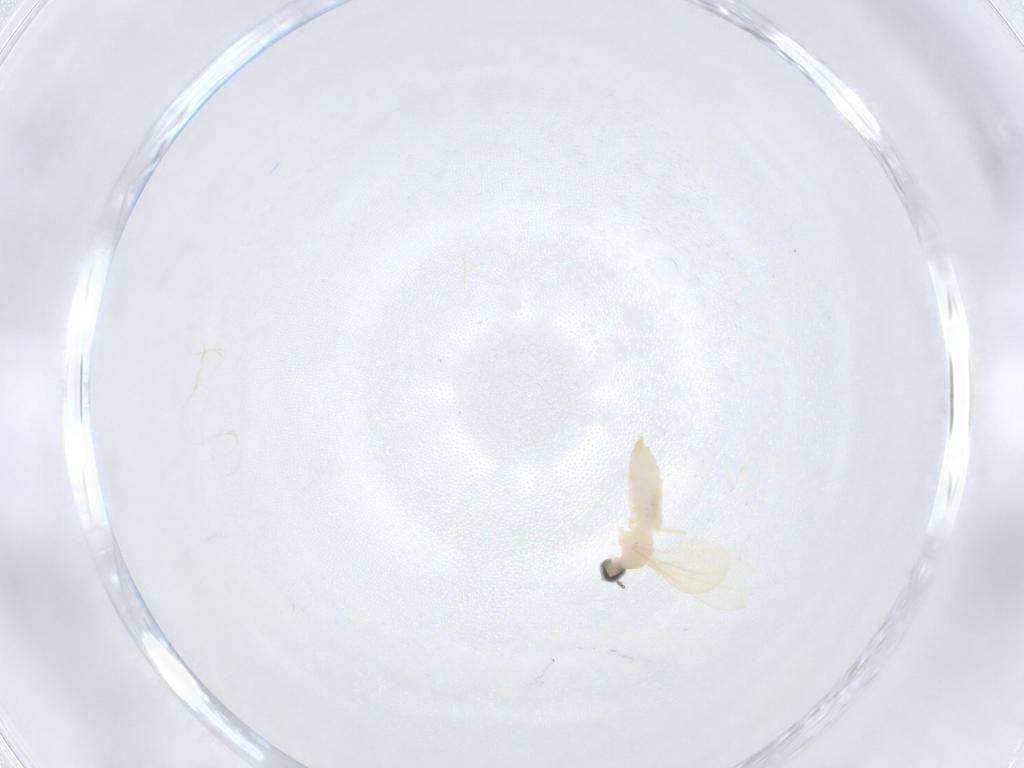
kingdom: Animalia
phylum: Arthropoda
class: Insecta
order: Diptera
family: Cecidomyiidae
